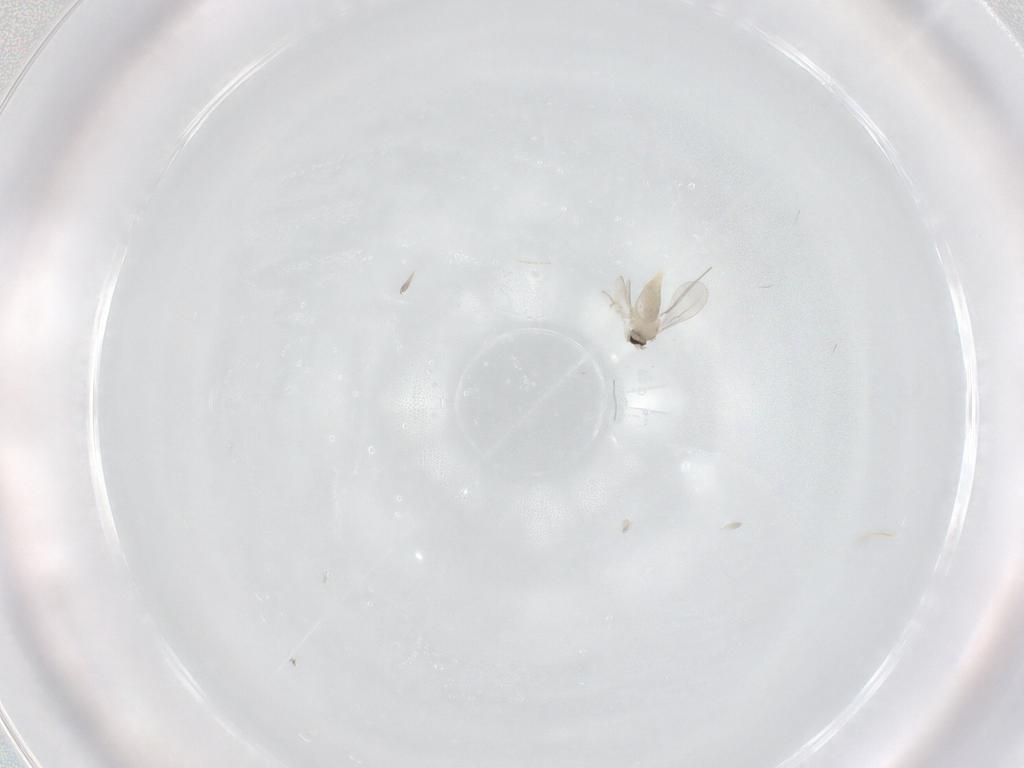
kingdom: Animalia
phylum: Arthropoda
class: Insecta
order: Diptera
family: Cecidomyiidae
